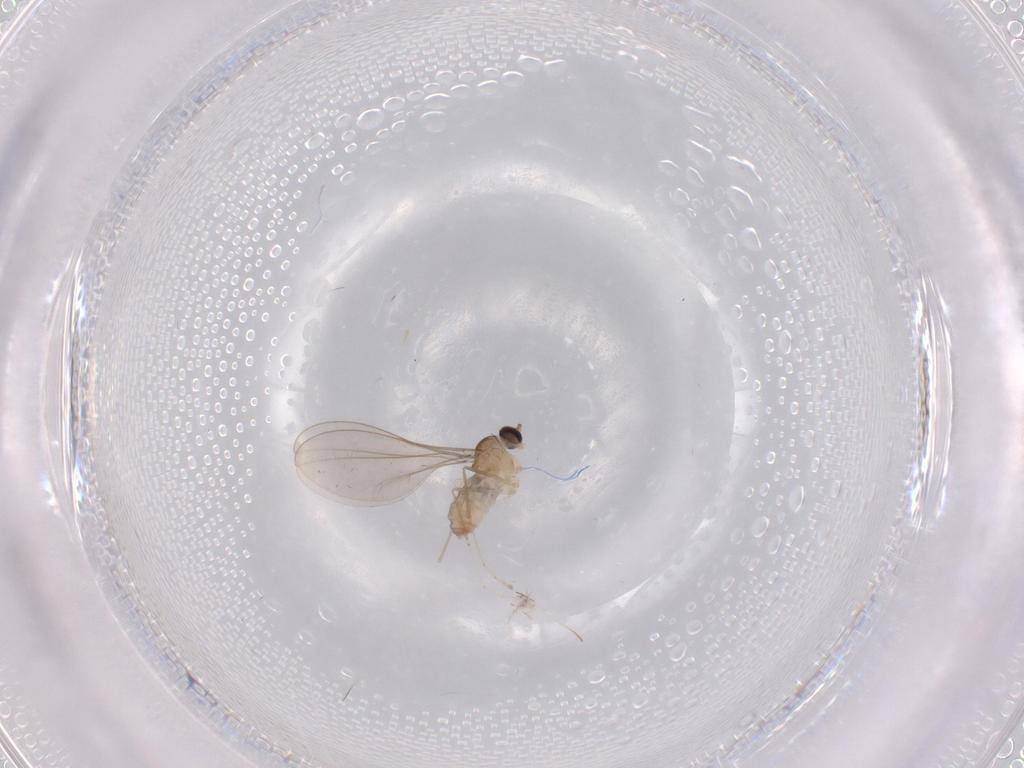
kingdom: Animalia
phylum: Arthropoda
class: Insecta
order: Diptera
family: Cecidomyiidae
